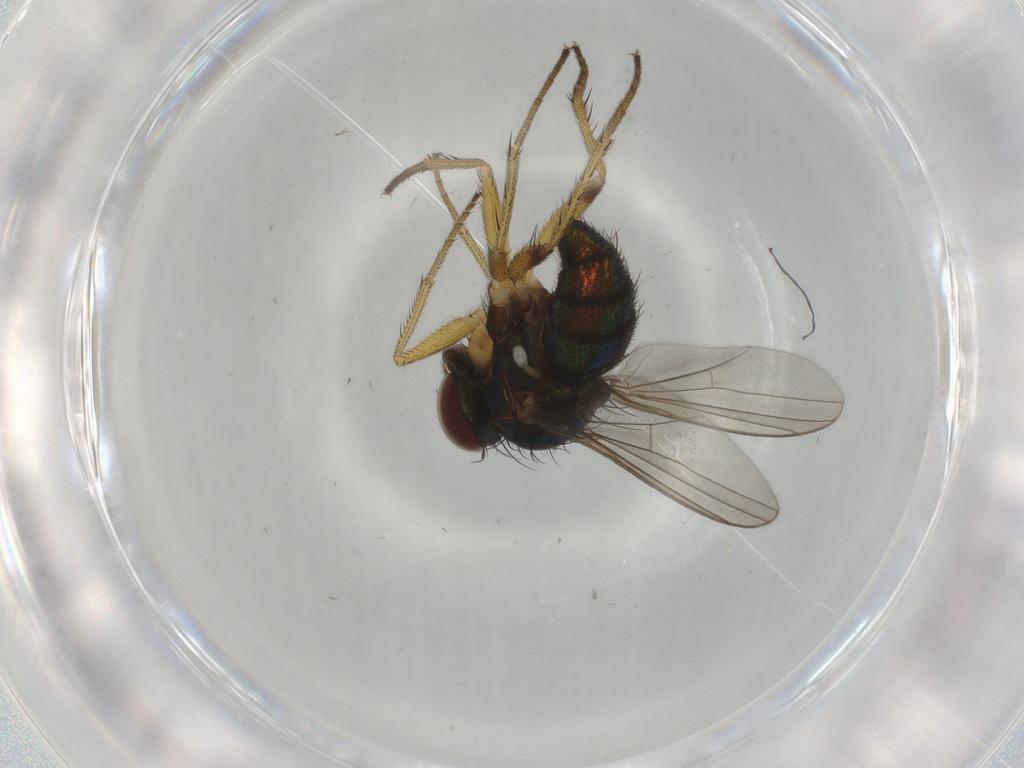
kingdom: Animalia
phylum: Arthropoda
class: Insecta
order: Diptera
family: Dolichopodidae
